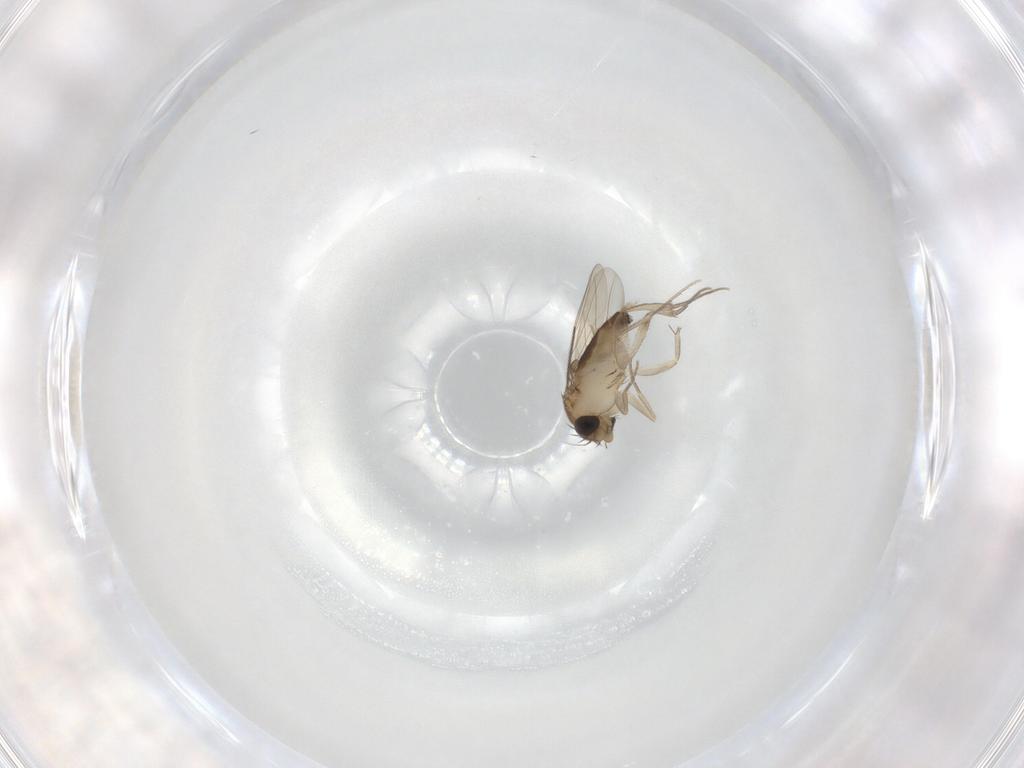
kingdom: Animalia
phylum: Arthropoda
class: Insecta
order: Diptera
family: Phoridae
